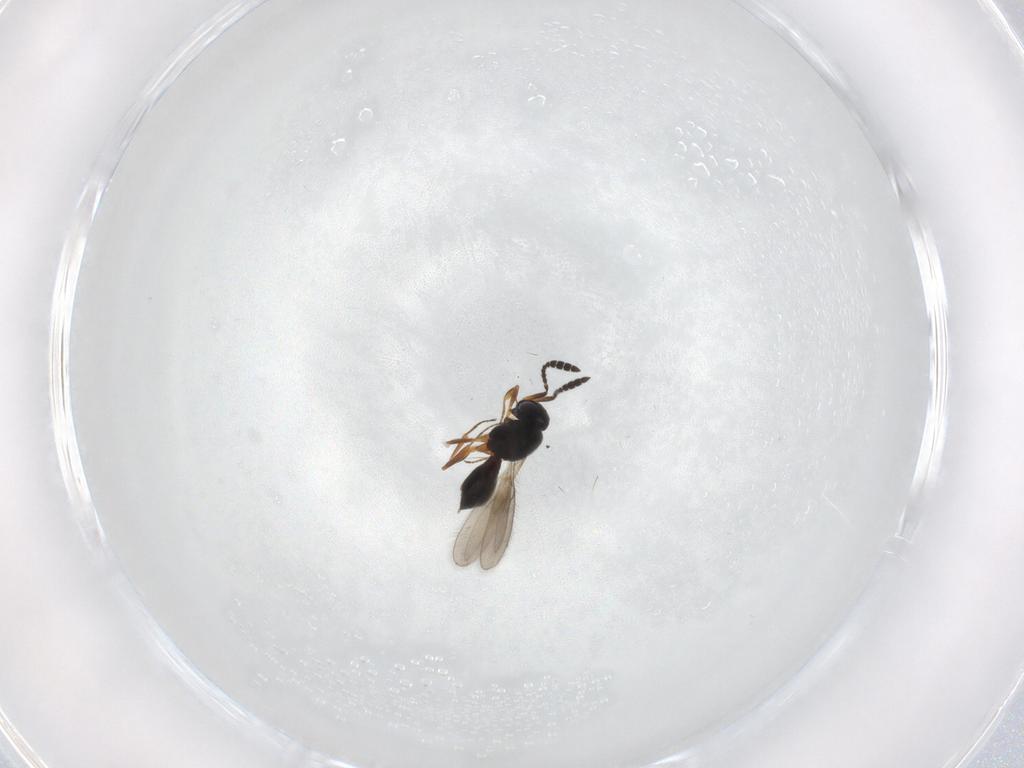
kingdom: Animalia
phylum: Arthropoda
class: Insecta
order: Hymenoptera
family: Scelionidae
